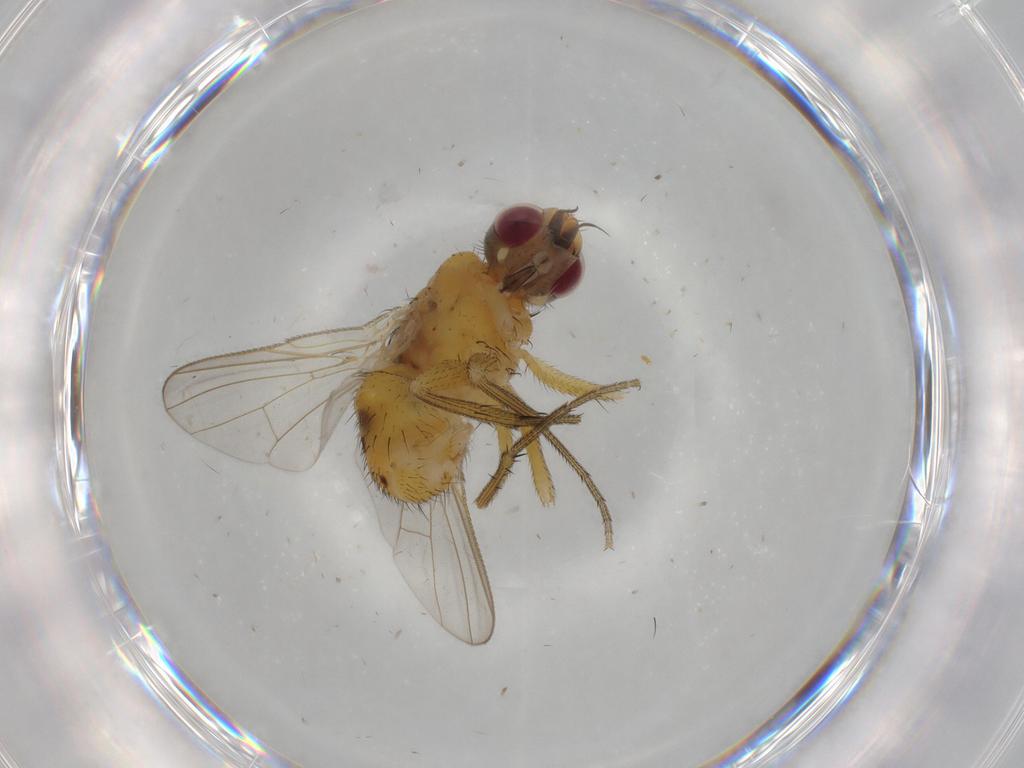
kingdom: Animalia
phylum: Arthropoda
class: Insecta
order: Diptera
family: Muscidae
